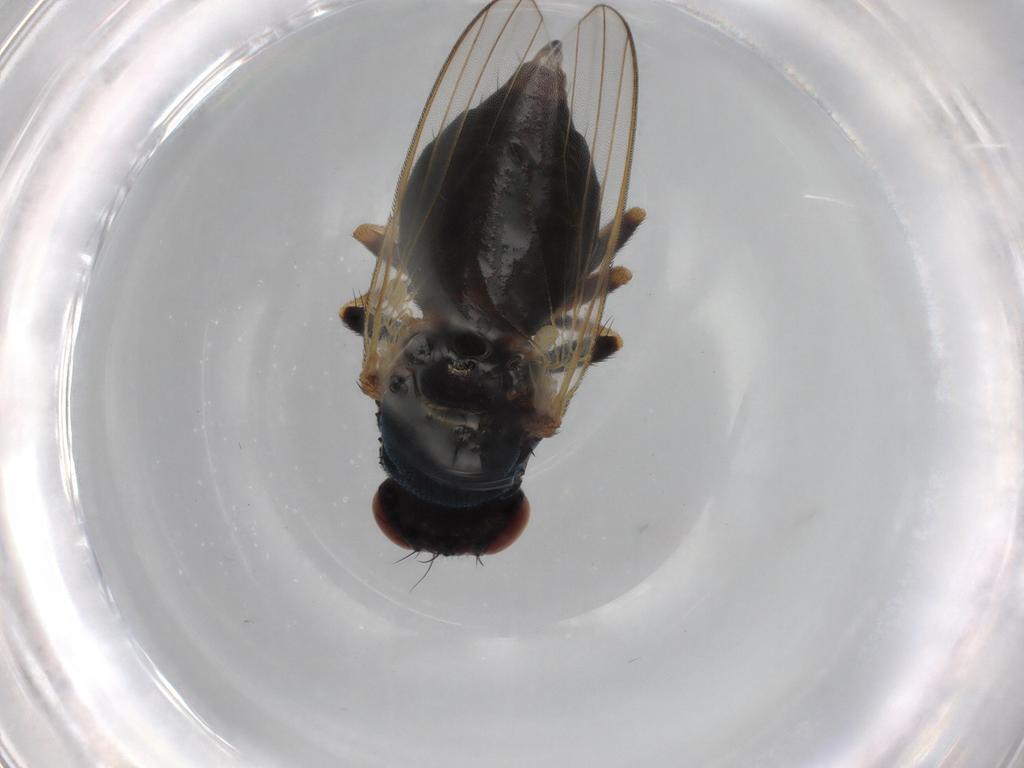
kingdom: Animalia
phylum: Arthropoda
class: Insecta
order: Diptera
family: Piophilidae
